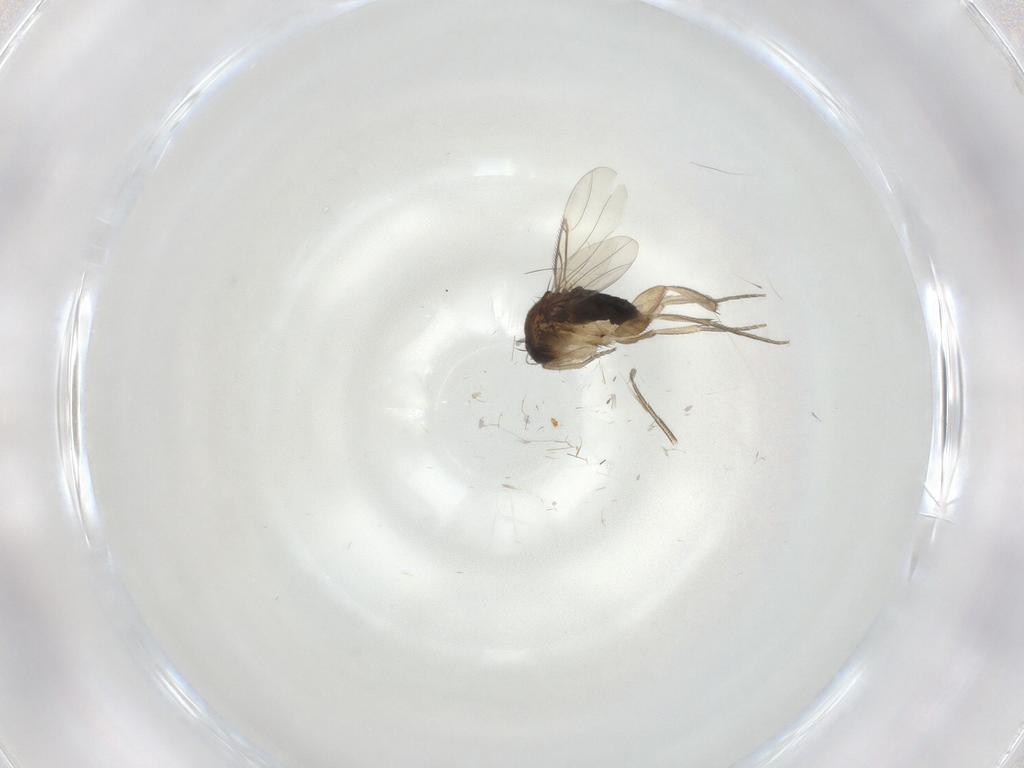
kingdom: Animalia
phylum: Arthropoda
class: Insecta
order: Diptera
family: Phoridae
